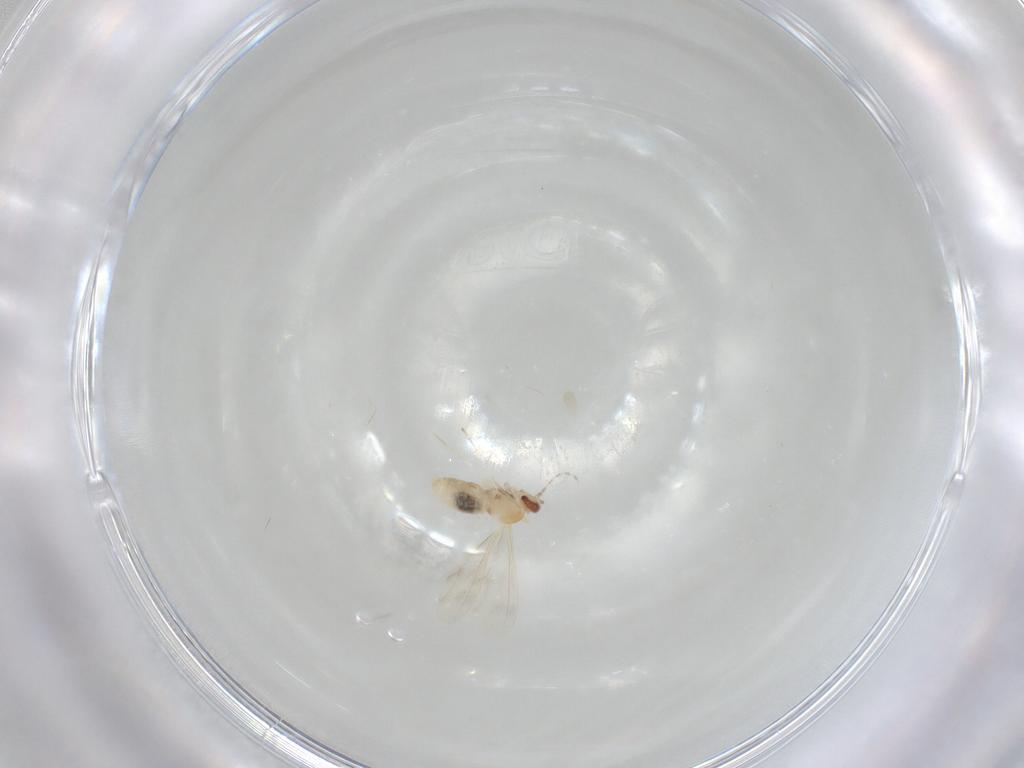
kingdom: Animalia
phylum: Arthropoda
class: Insecta
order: Diptera
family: Cecidomyiidae
